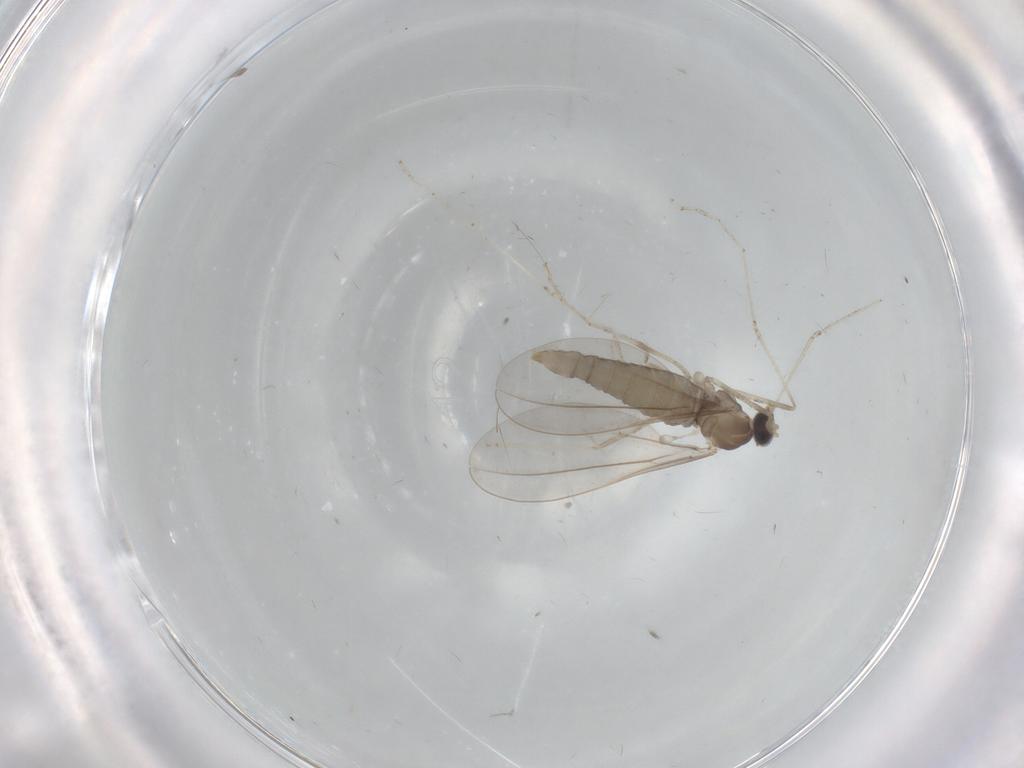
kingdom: Animalia
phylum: Arthropoda
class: Insecta
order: Diptera
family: Cecidomyiidae
